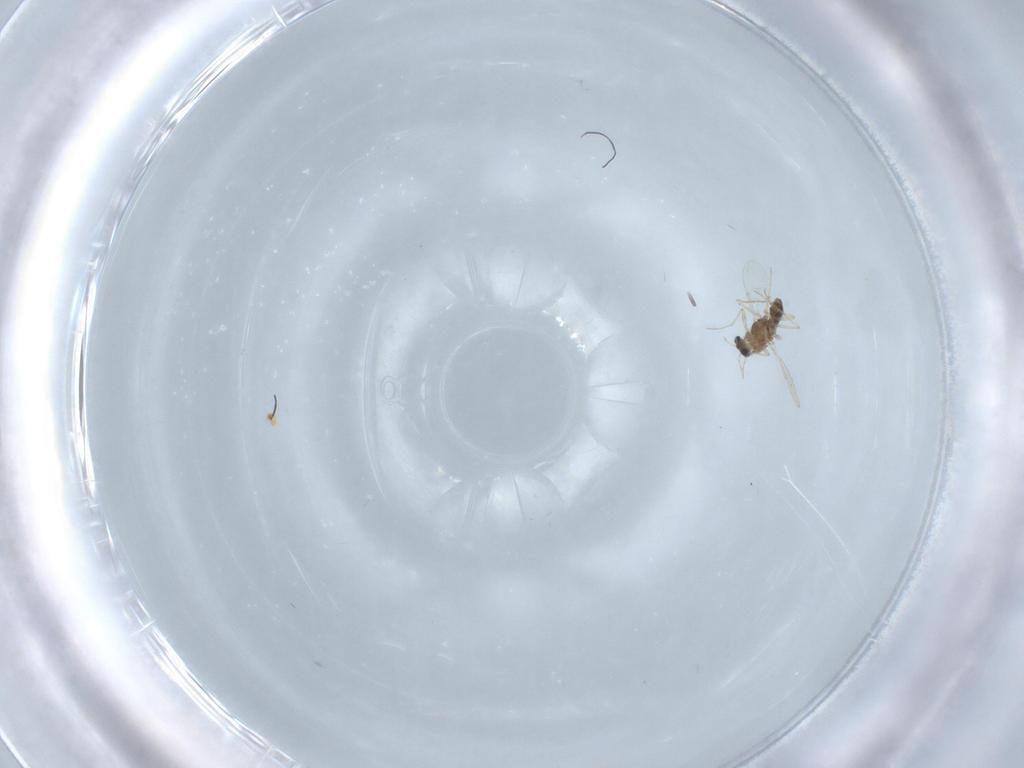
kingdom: Animalia
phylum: Arthropoda
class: Insecta
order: Diptera
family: Chironomidae
